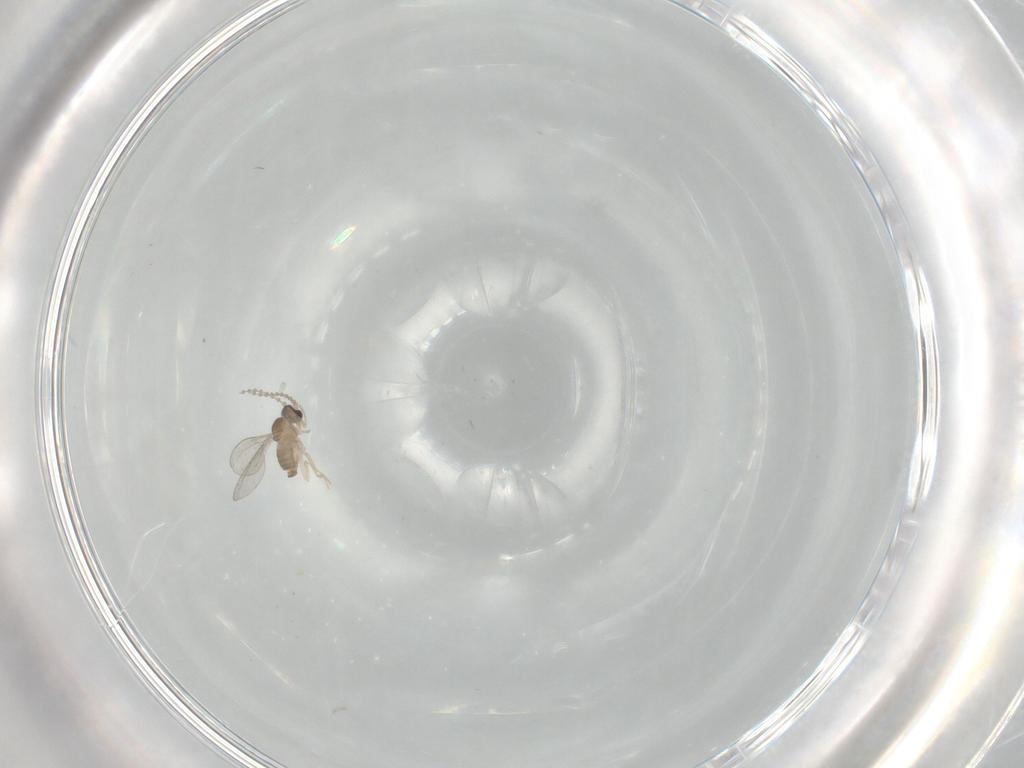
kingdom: Animalia
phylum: Arthropoda
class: Insecta
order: Diptera
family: Cecidomyiidae
